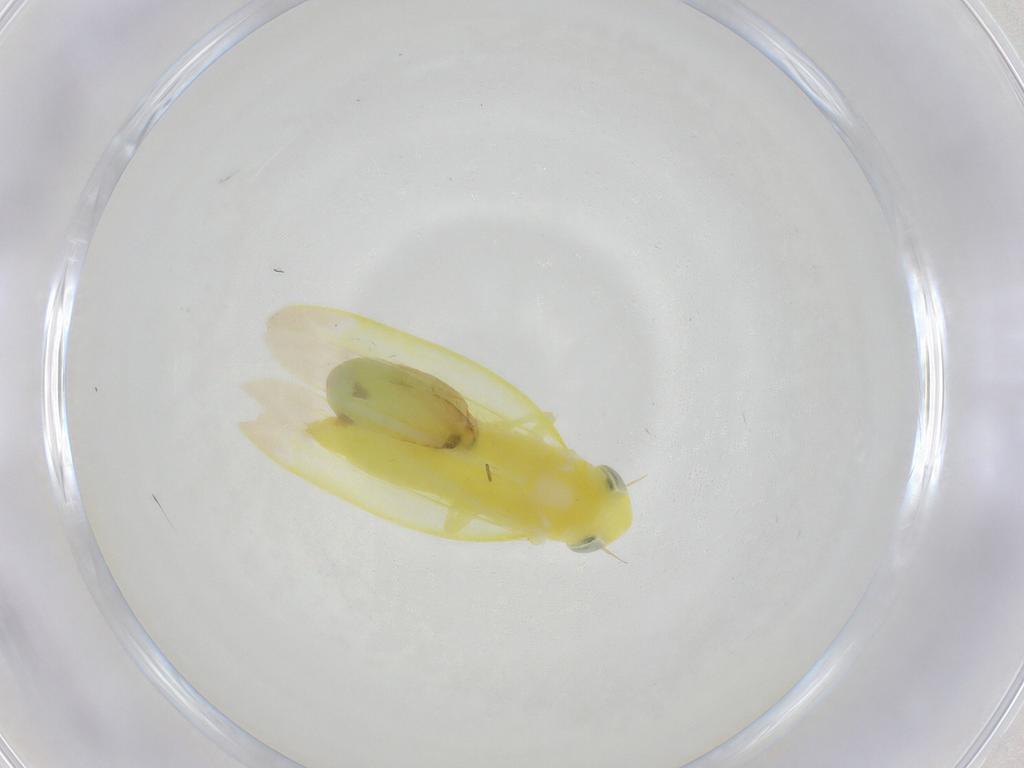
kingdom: Animalia
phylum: Arthropoda
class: Insecta
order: Hemiptera
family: Cicadellidae
